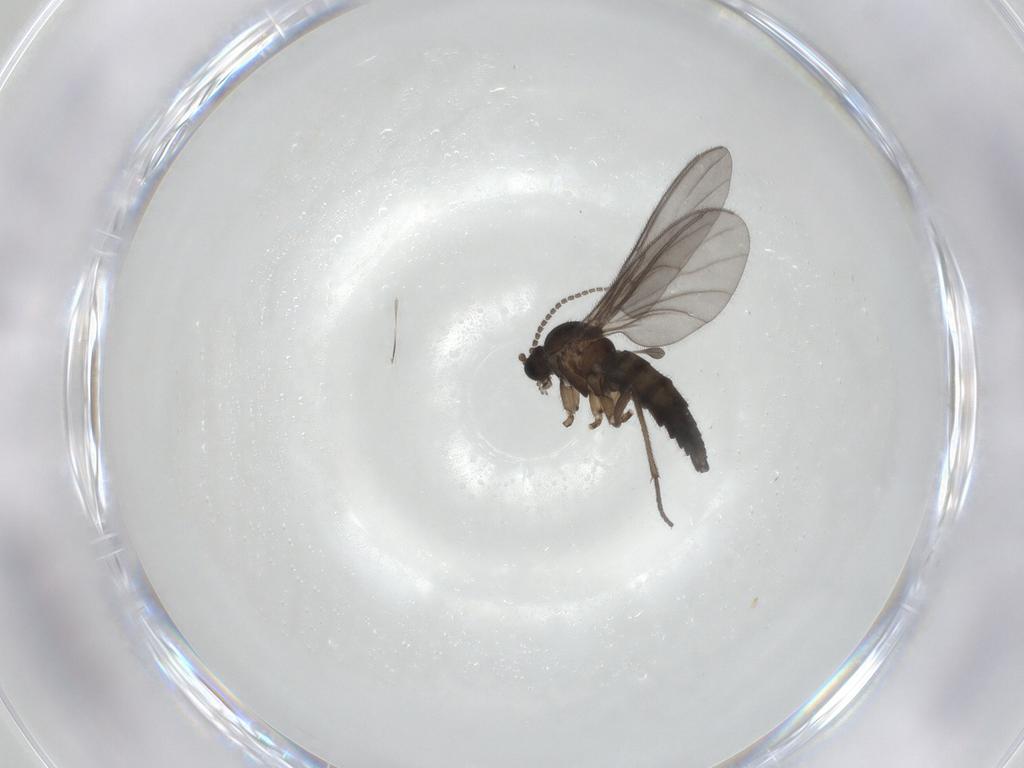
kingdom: Animalia
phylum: Arthropoda
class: Insecta
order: Diptera
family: Sciaridae
